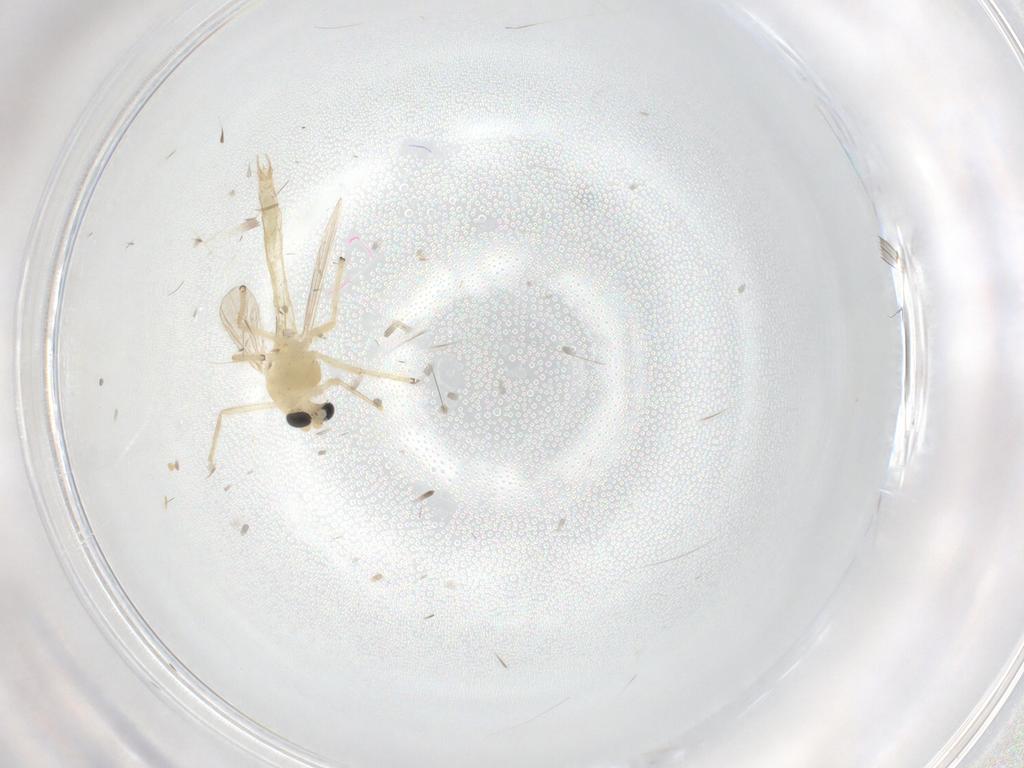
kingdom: Animalia
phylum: Arthropoda
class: Insecta
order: Diptera
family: Chironomidae
